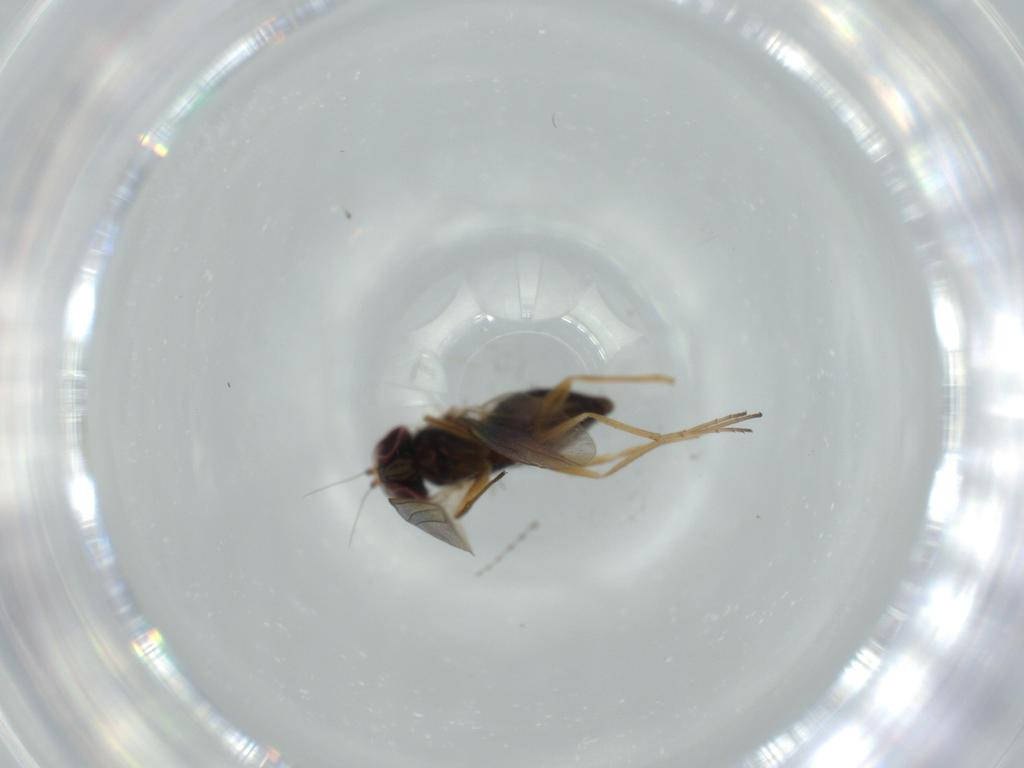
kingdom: Animalia
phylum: Arthropoda
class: Insecta
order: Diptera
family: Dolichopodidae
